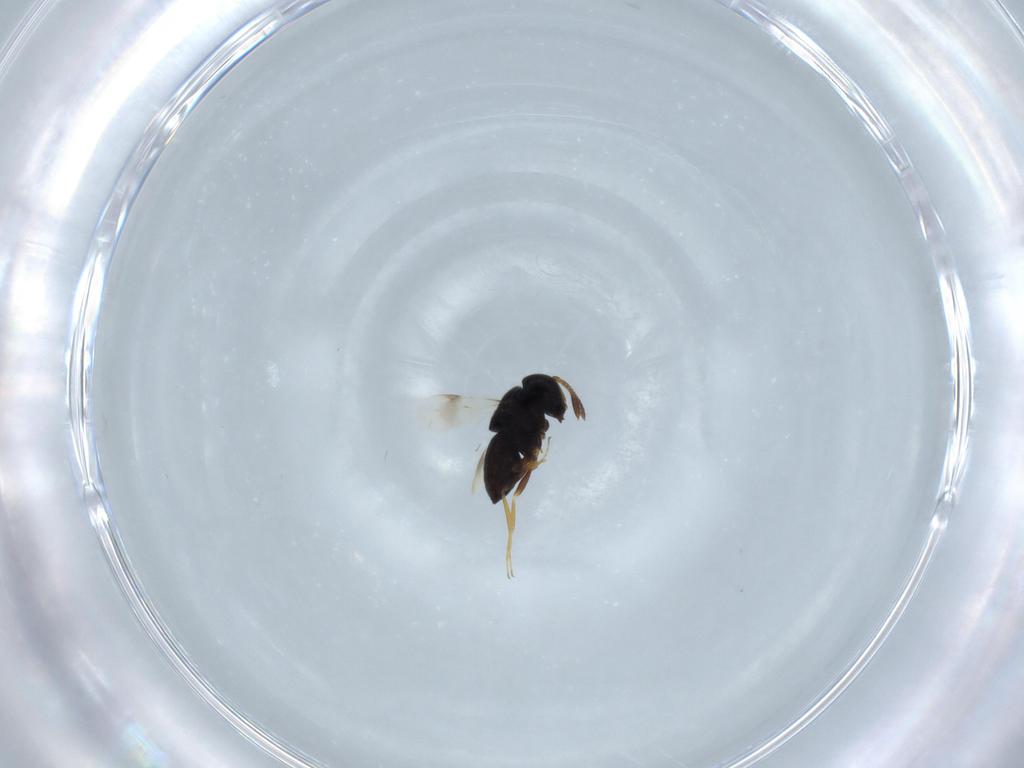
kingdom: Animalia
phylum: Arthropoda
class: Insecta
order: Hymenoptera
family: Scelionidae
